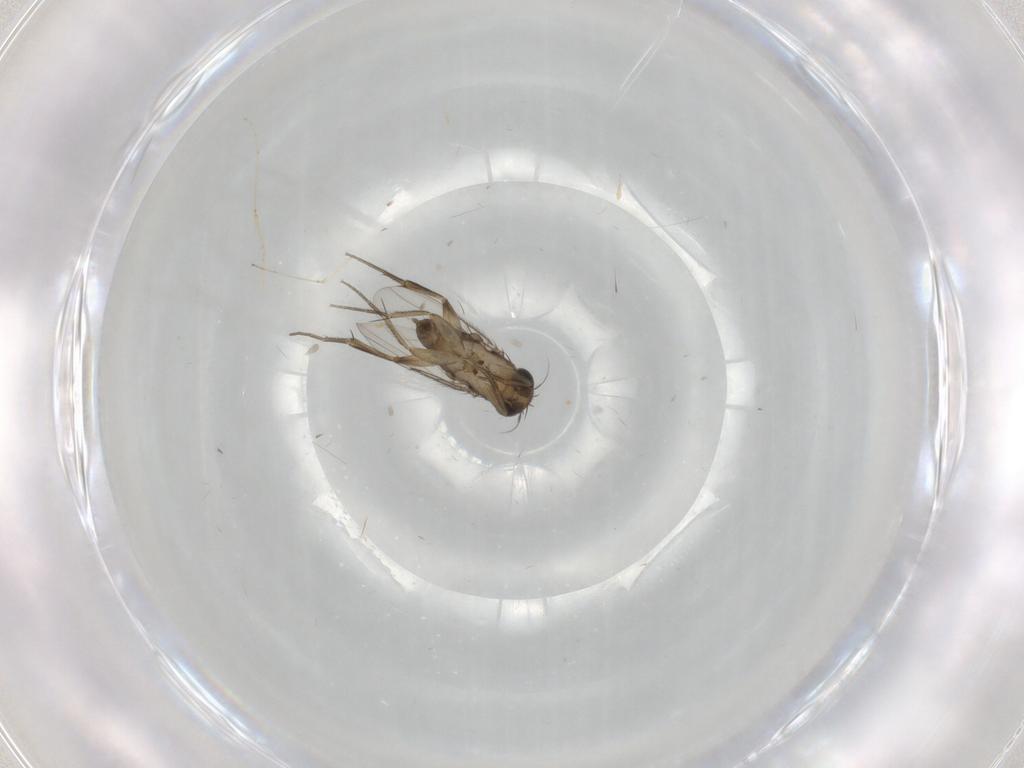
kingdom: Animalia
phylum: Arthropoda
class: Insecta
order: Diptera
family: Phoridae
